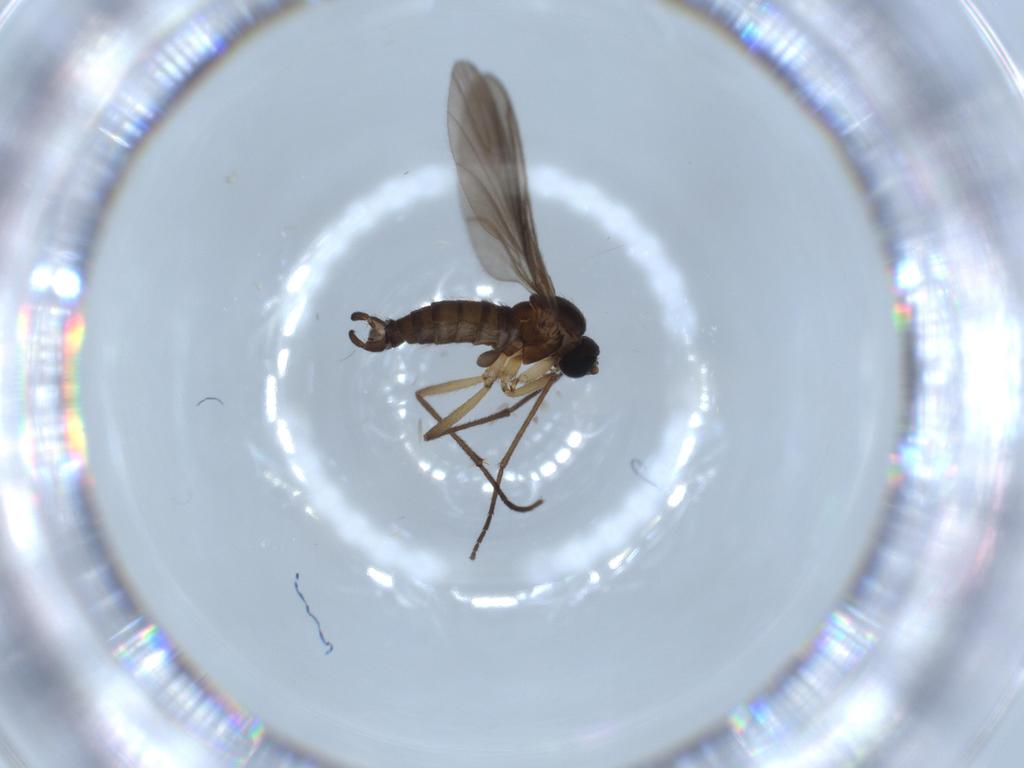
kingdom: Animalia
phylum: Arthropoda
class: Insecta
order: Diptera
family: Sciaridae
